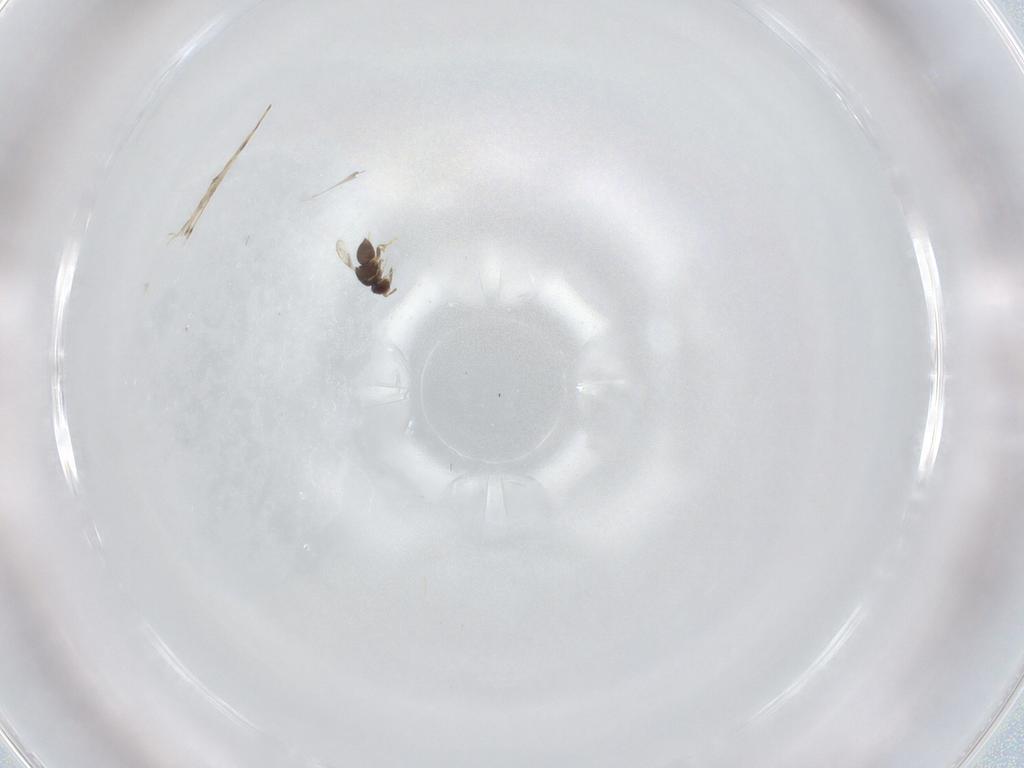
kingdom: Animalia
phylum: Arthropoda
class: Insecta
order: Hymenoptera
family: Ceraphronidae
